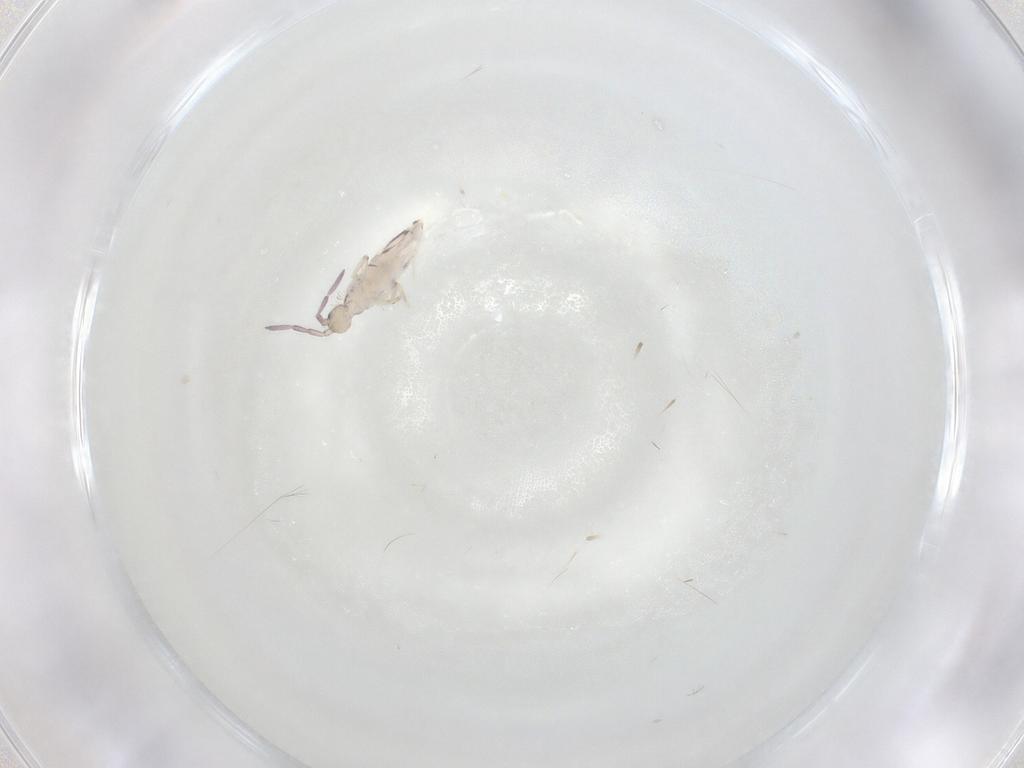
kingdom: Animalia
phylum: Arthropoda
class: Collembola
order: Entomobryomorpha
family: Entomobryidae
